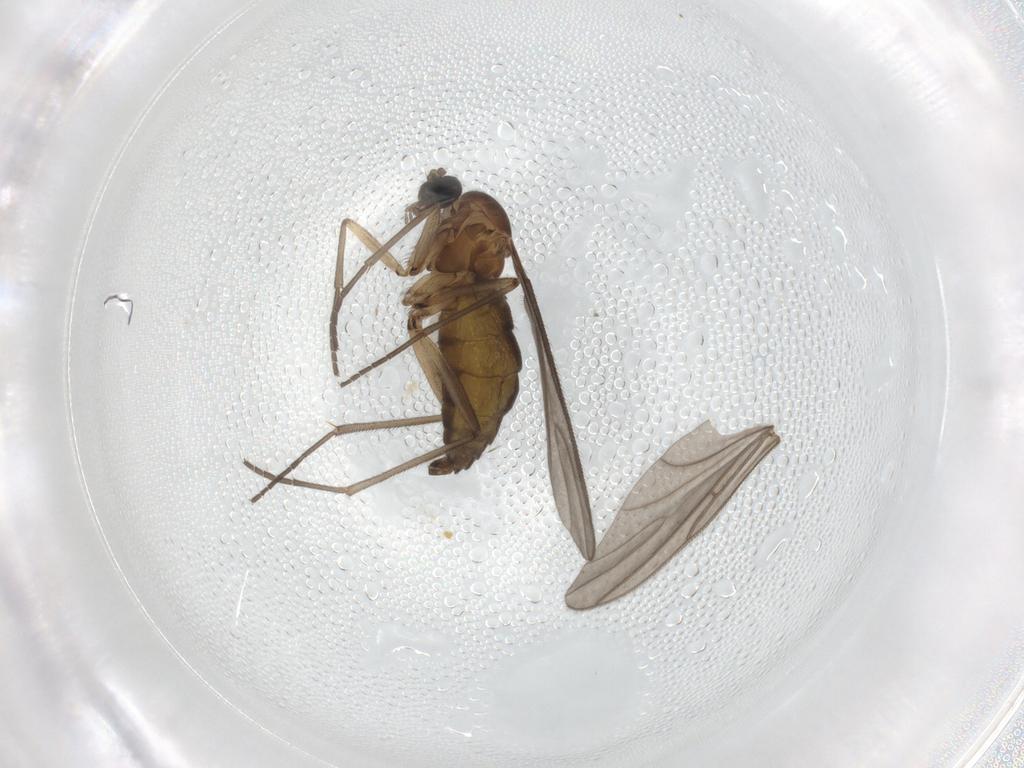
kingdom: Animalia
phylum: Arthropoda
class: Insecta
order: Diptera
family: Sciaridae
